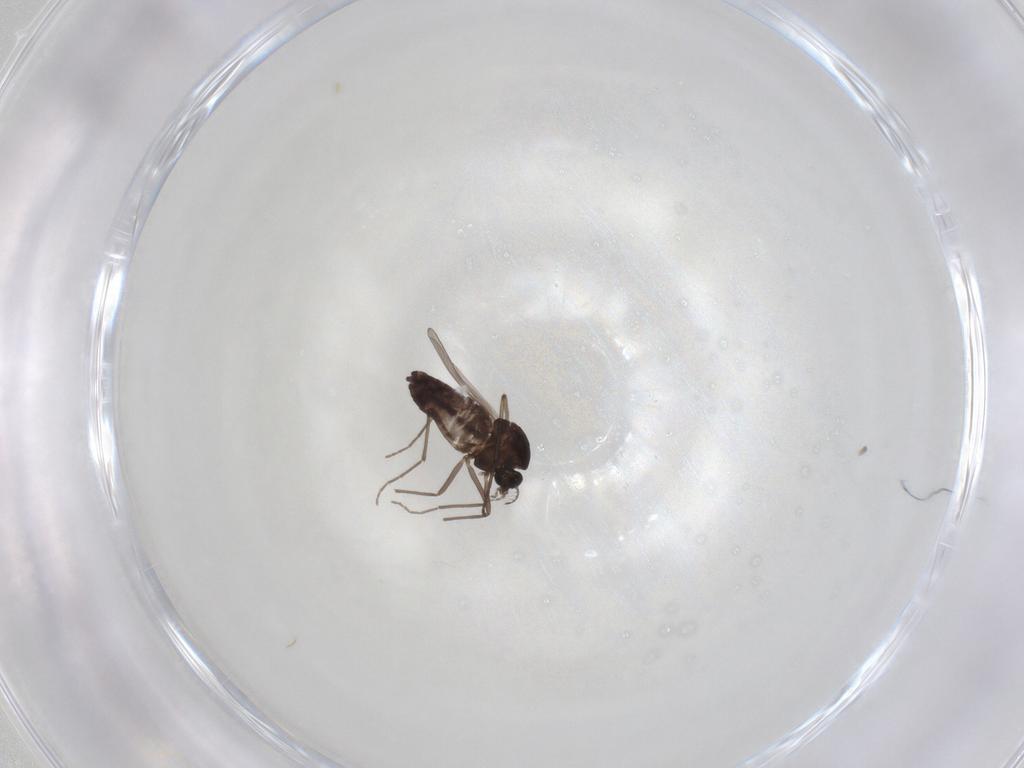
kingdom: Animalia
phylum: Arthropoda
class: Insecta
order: Diptera
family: Chironomidae
